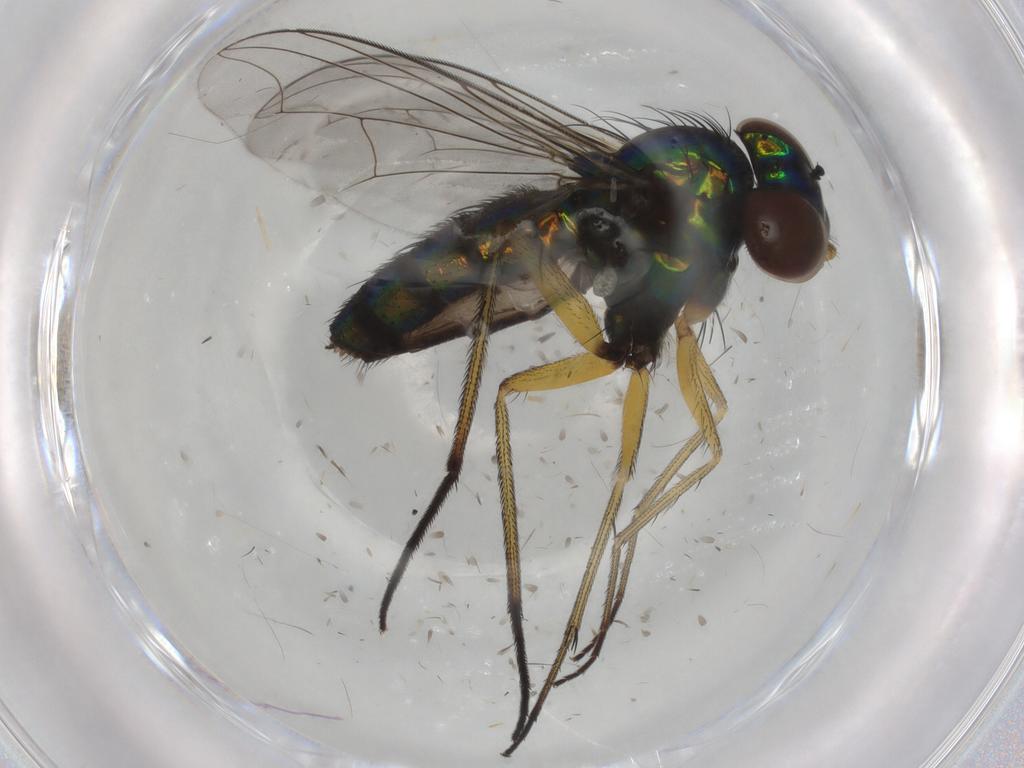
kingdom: Animalia
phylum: Arthropoda
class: Insecta
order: Diptera
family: Dolichopodidae
